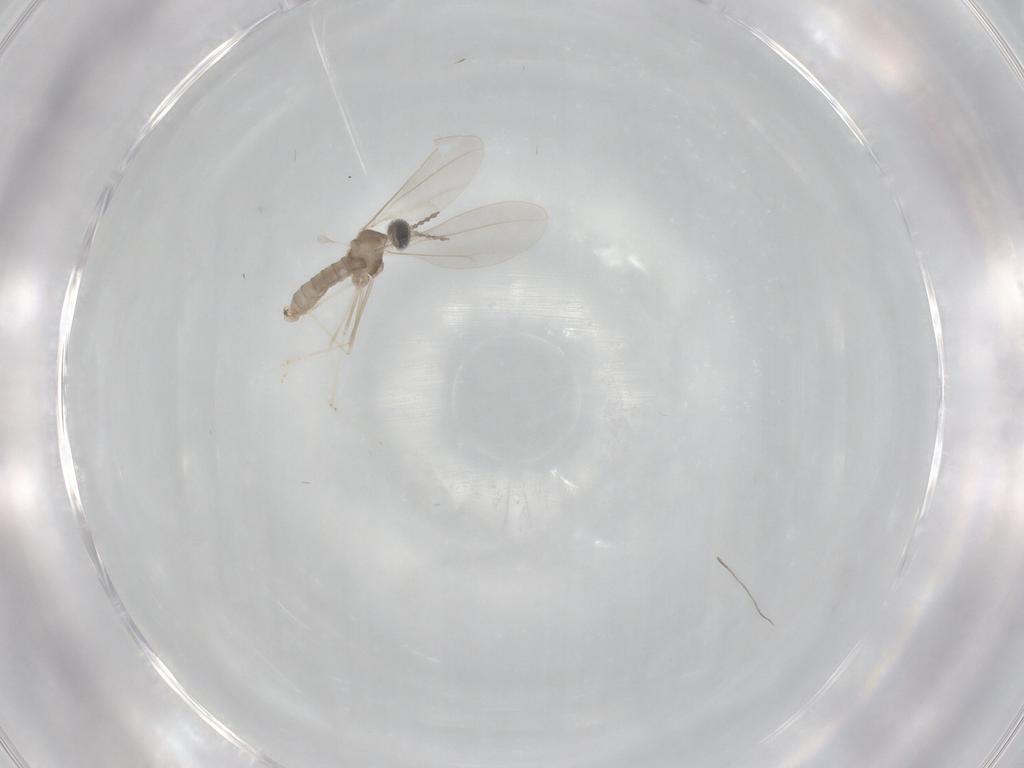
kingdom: Animalia
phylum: Arthropoda
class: Insecta
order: Diptera
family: Cecidomyiidae
